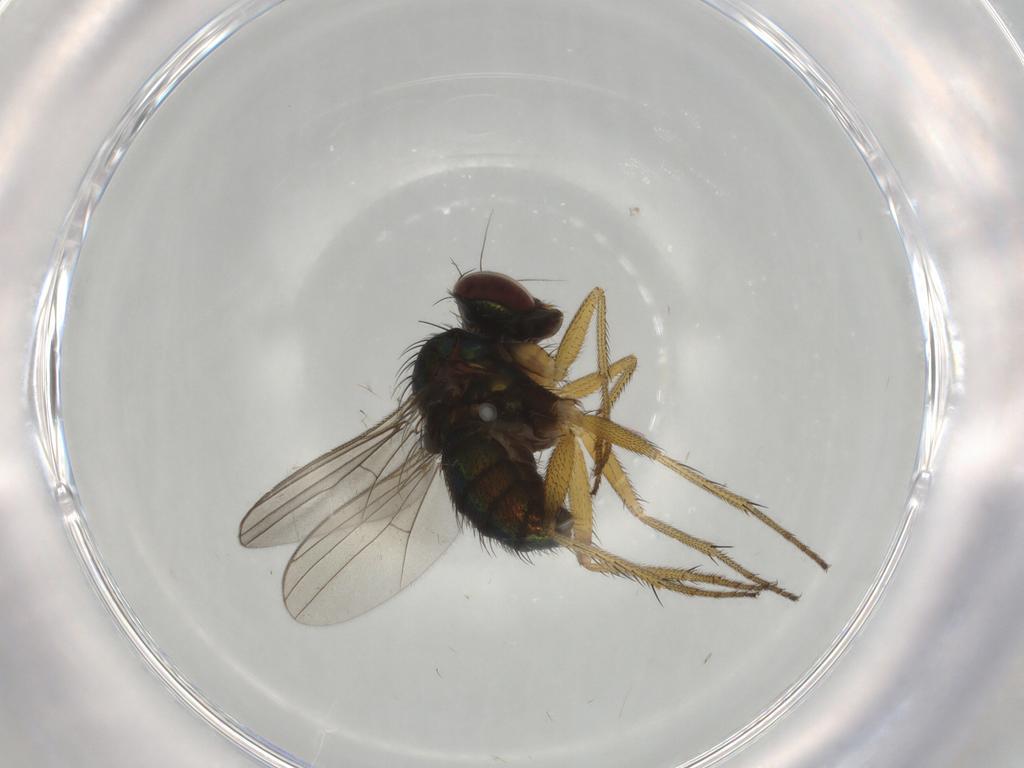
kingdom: Animalia
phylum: Arthropoda
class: Insecta
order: Diptera
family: Dolichopodidae
